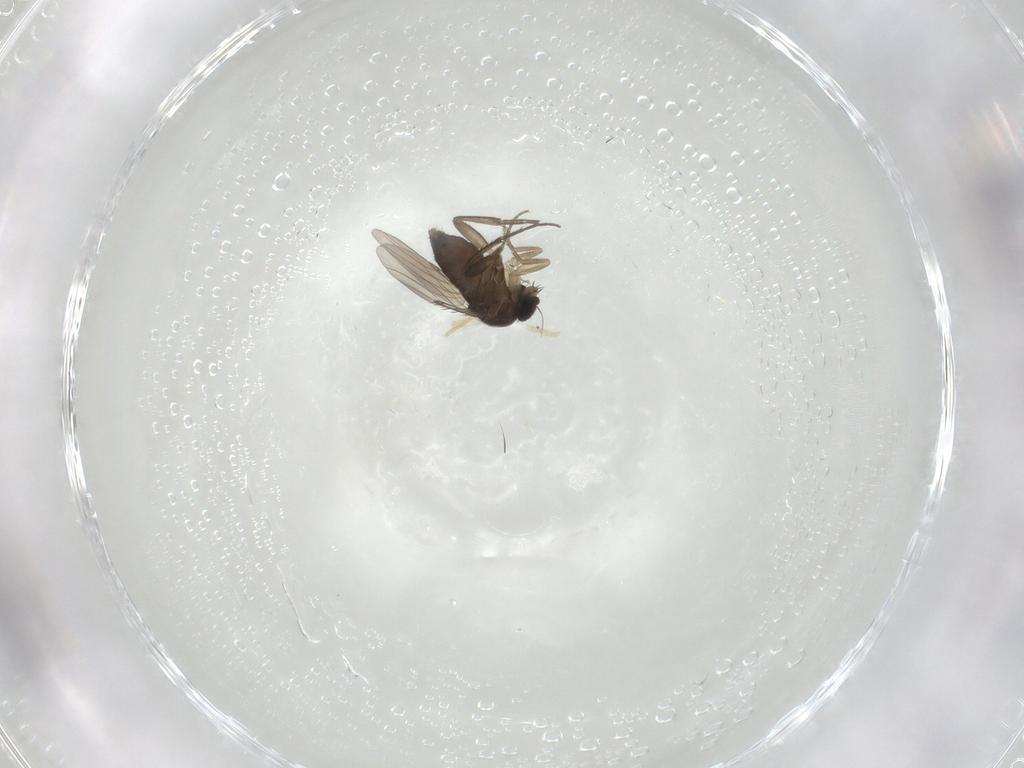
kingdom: Animalia
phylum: Arthropoda
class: Insecta
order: Diptera
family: Phoridae
